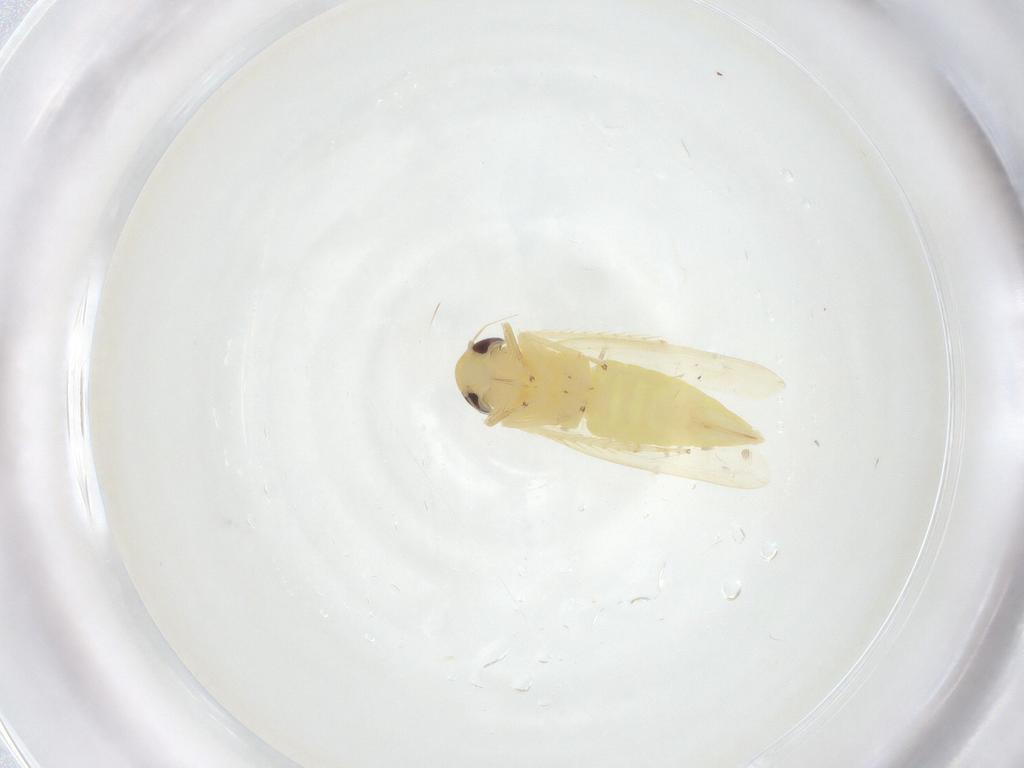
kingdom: Animalia
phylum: Arthropoda
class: Insecta
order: Hemiptera
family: Cicadellidae
